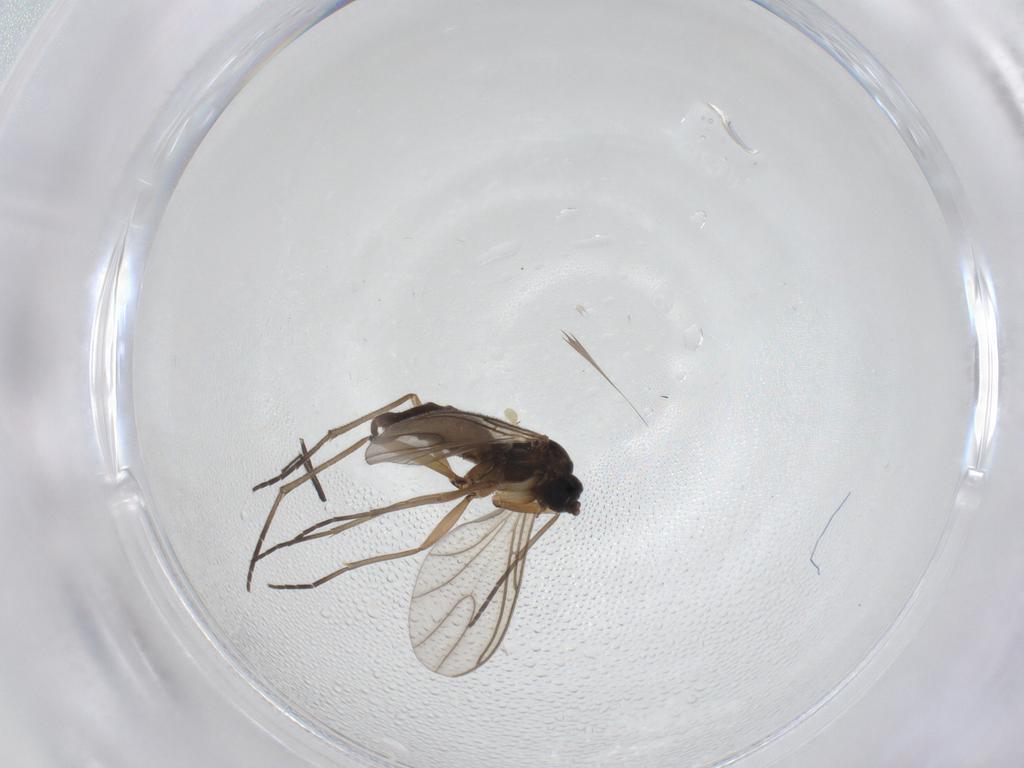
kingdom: Animalia
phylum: Arthropoda
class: Insecta
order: Diptera
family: Sciaridae
